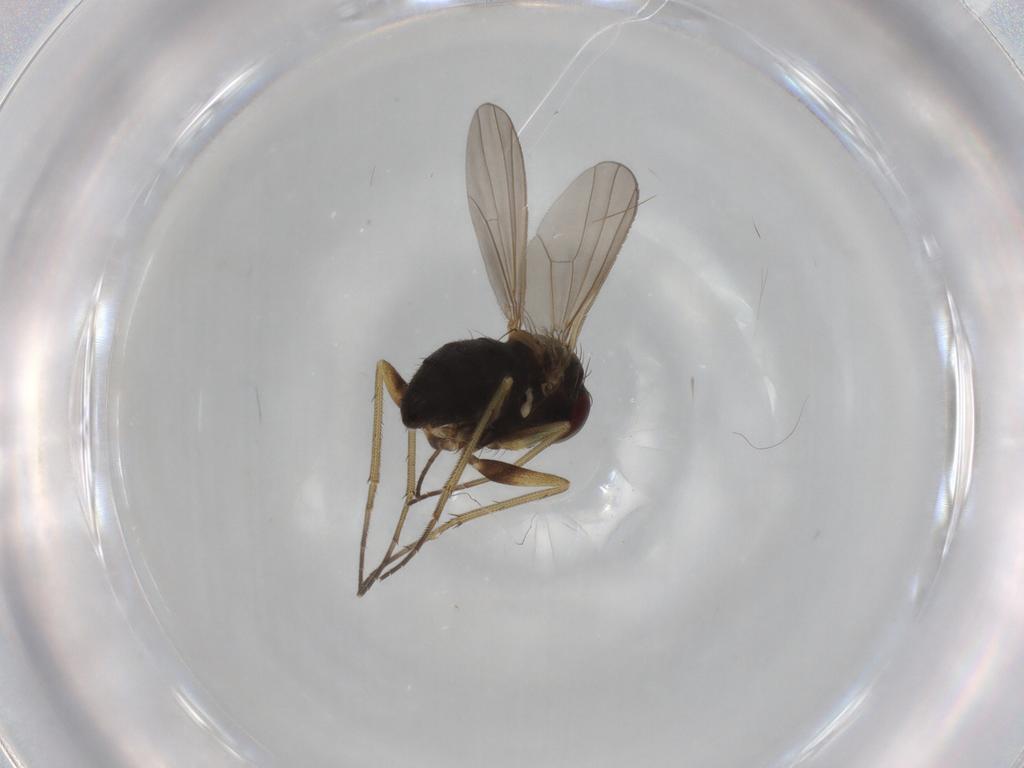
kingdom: Animalia
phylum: Arthropoda
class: Insecta
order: Diptera
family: Dolichopodidae
